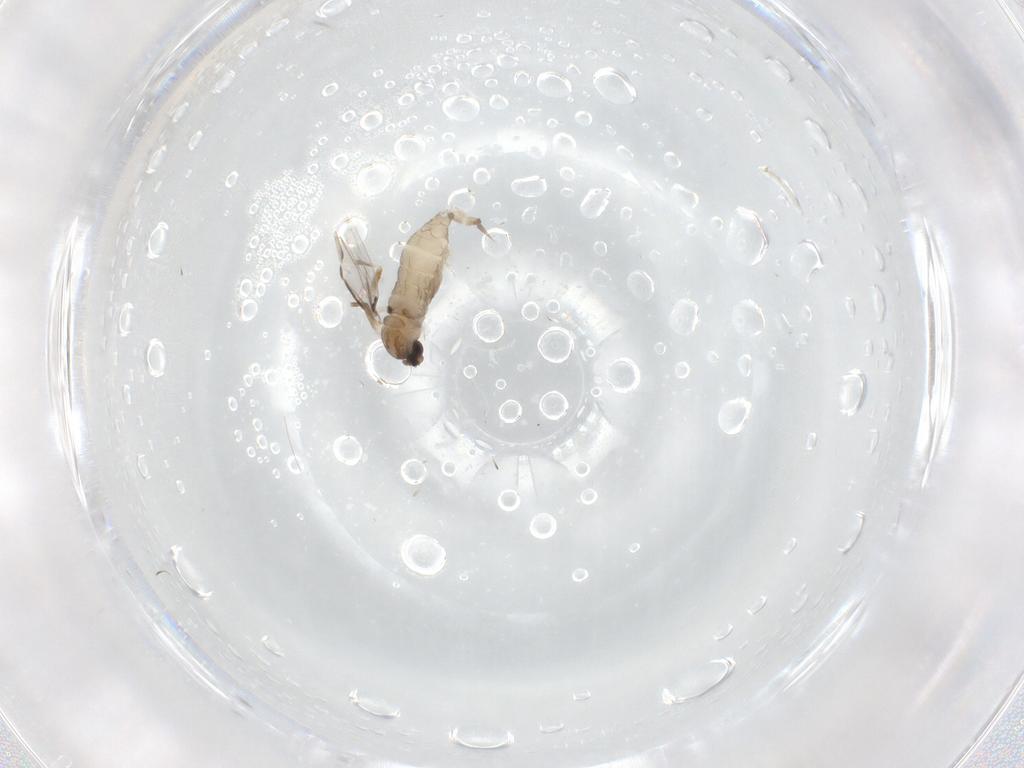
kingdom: Animalia
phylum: Arthropoda
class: Insecta
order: Diptera
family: Cecidomyiidae
